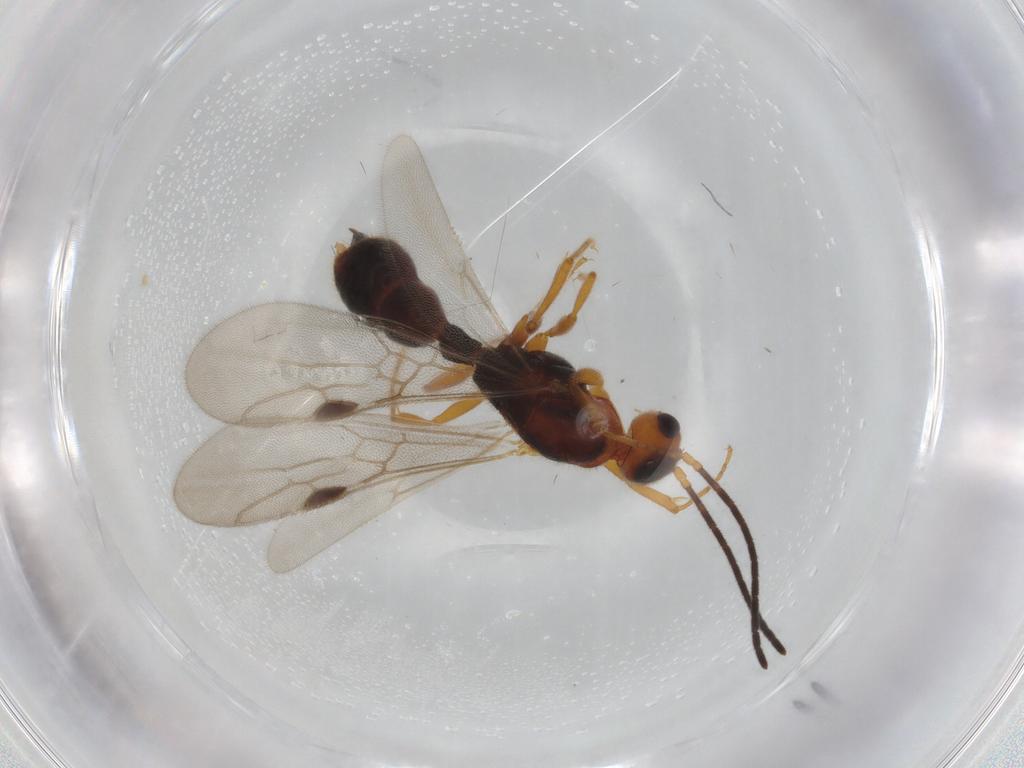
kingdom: Animalia
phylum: Arthropoda
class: Insecta
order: Hymenoptera
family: Formicidae
